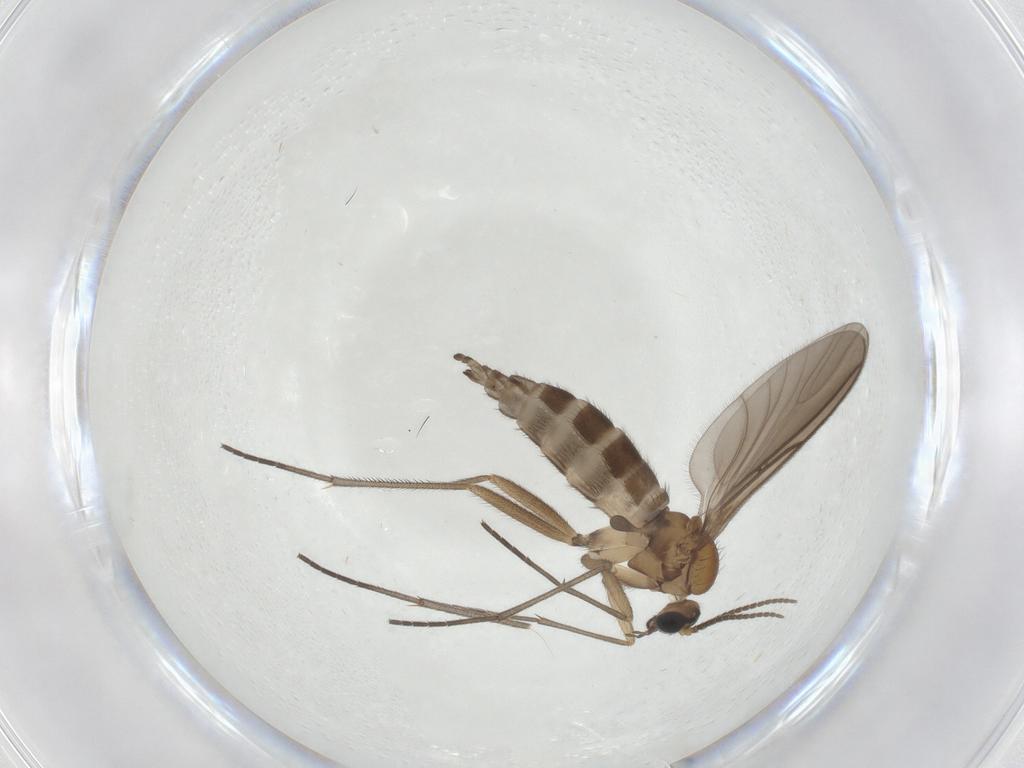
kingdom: Animalia
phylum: Arthropoda
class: Insecta
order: Diptera
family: Sciaridae
